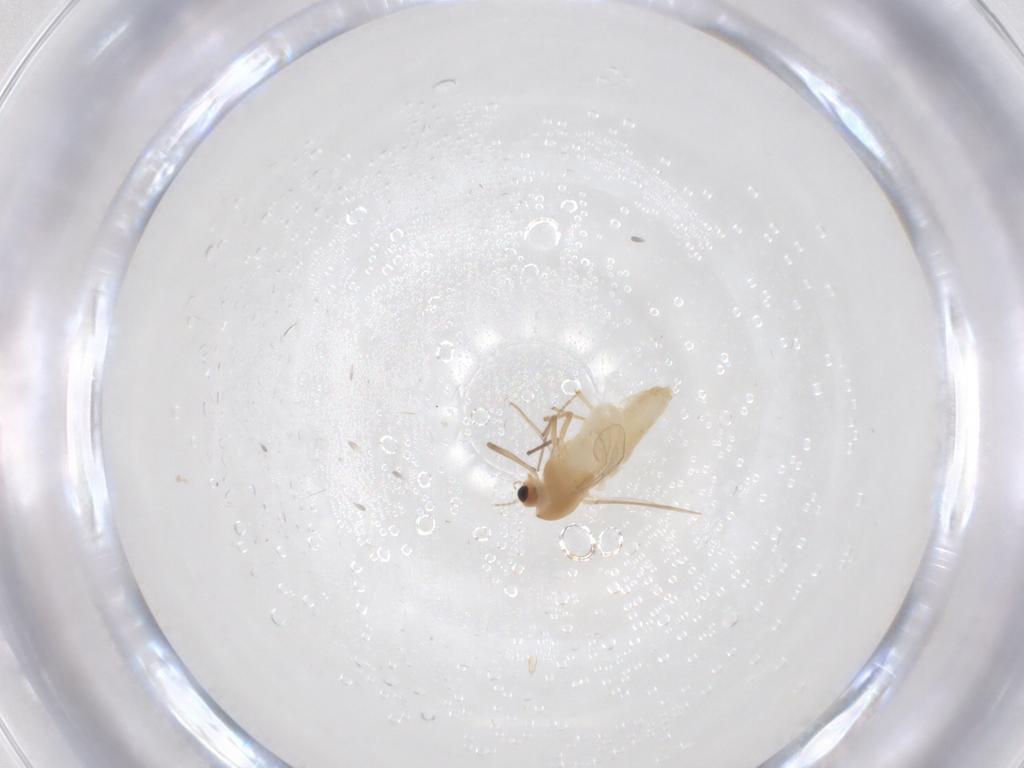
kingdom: Animalia
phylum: Arthropoda
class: Insecta
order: Diptera
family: Chironomidae
